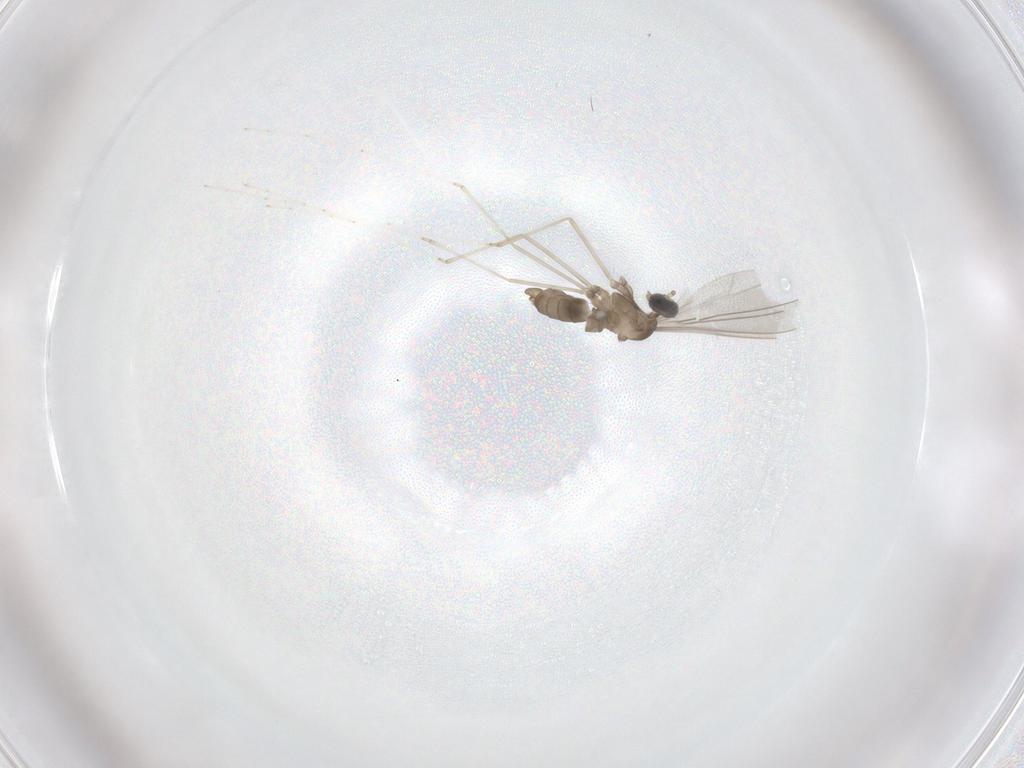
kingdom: Animalia
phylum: Arthropoda
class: Insecta
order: Diptera
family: Cecidomyiidae
